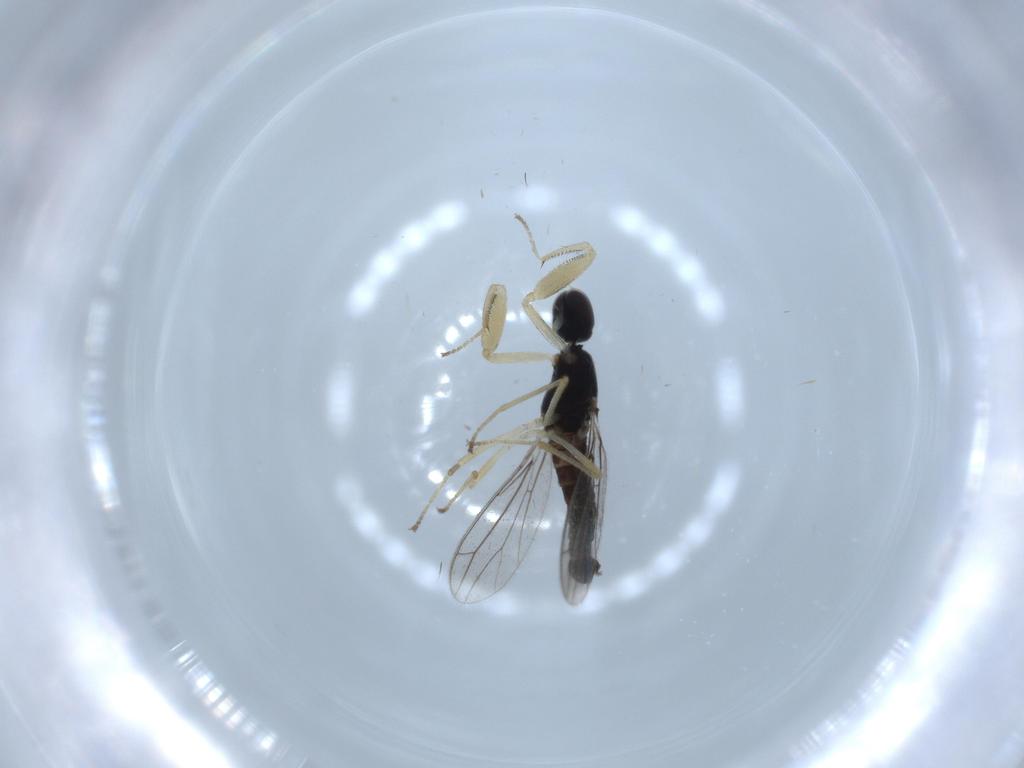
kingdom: Animalia
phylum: Arthropoda
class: Insecta
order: Diptera
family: Empididae
